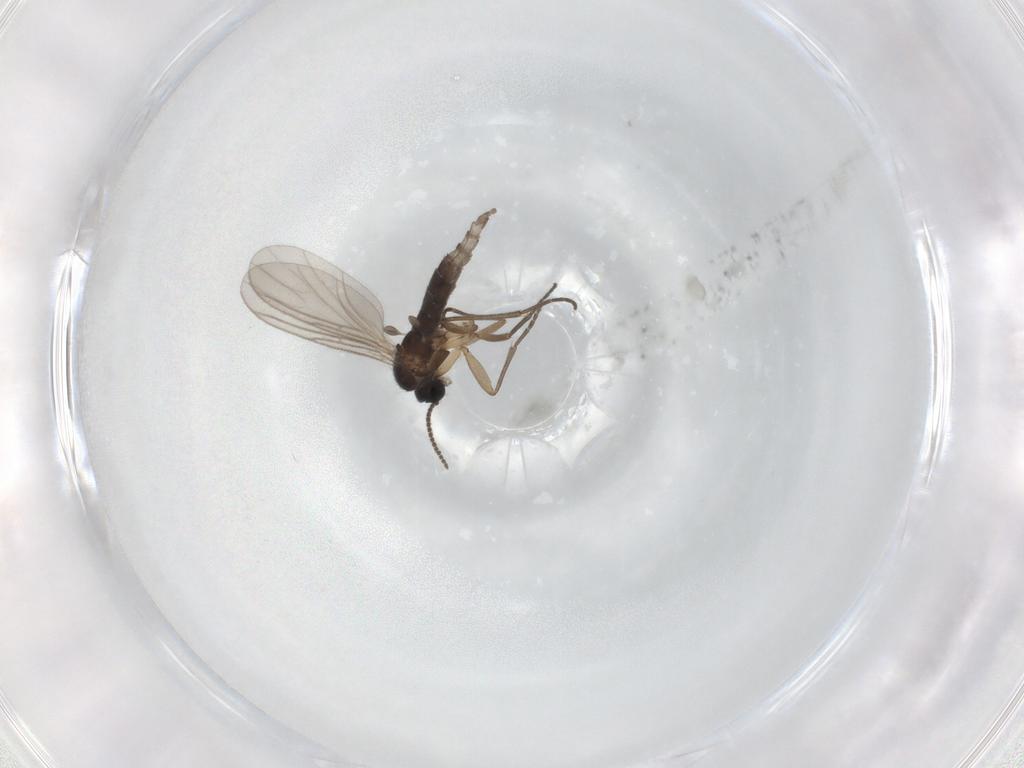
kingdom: Animalia
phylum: Arthropoda
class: Insecta
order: Diptera
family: Sciaridae
